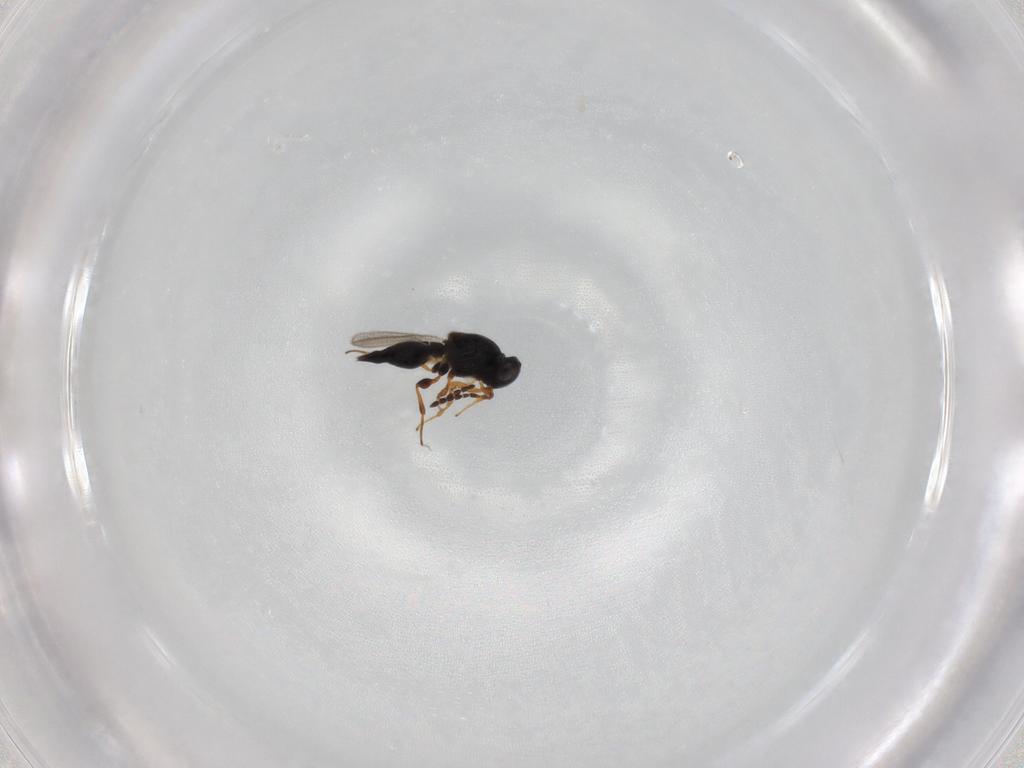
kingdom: Animalia
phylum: Arthropoda
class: Insecta
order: Hymenoptera
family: Platygastridae
